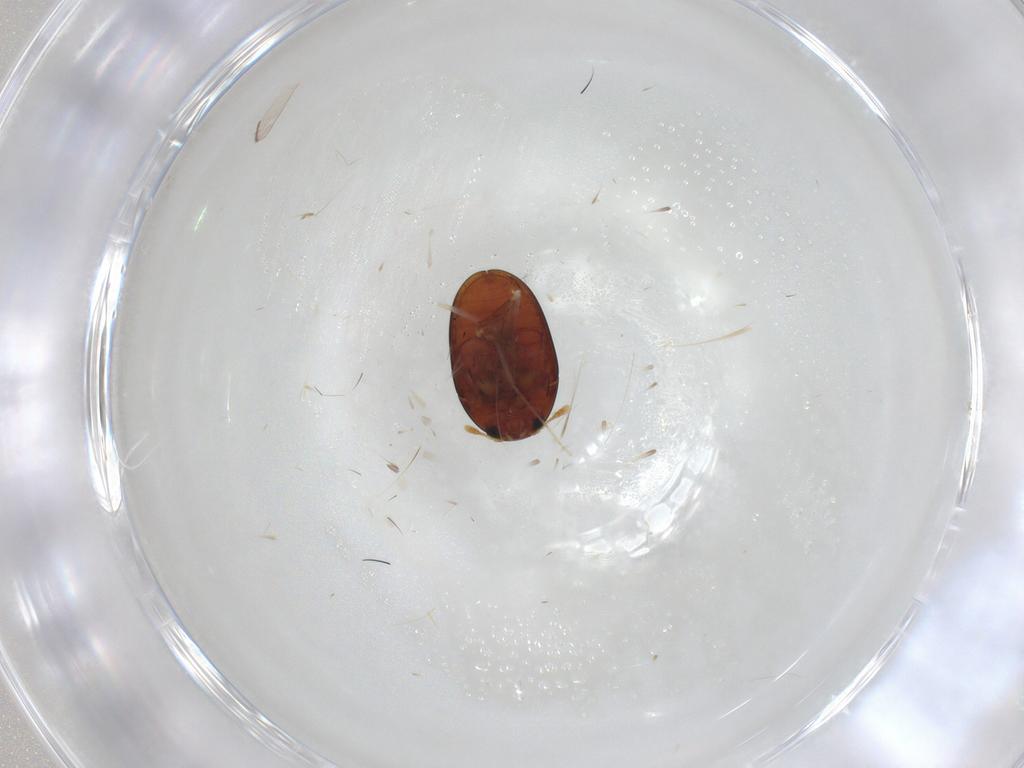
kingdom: Animalia
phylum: Arthropoda
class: Insecta
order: Coleoptera
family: Phalacridae
